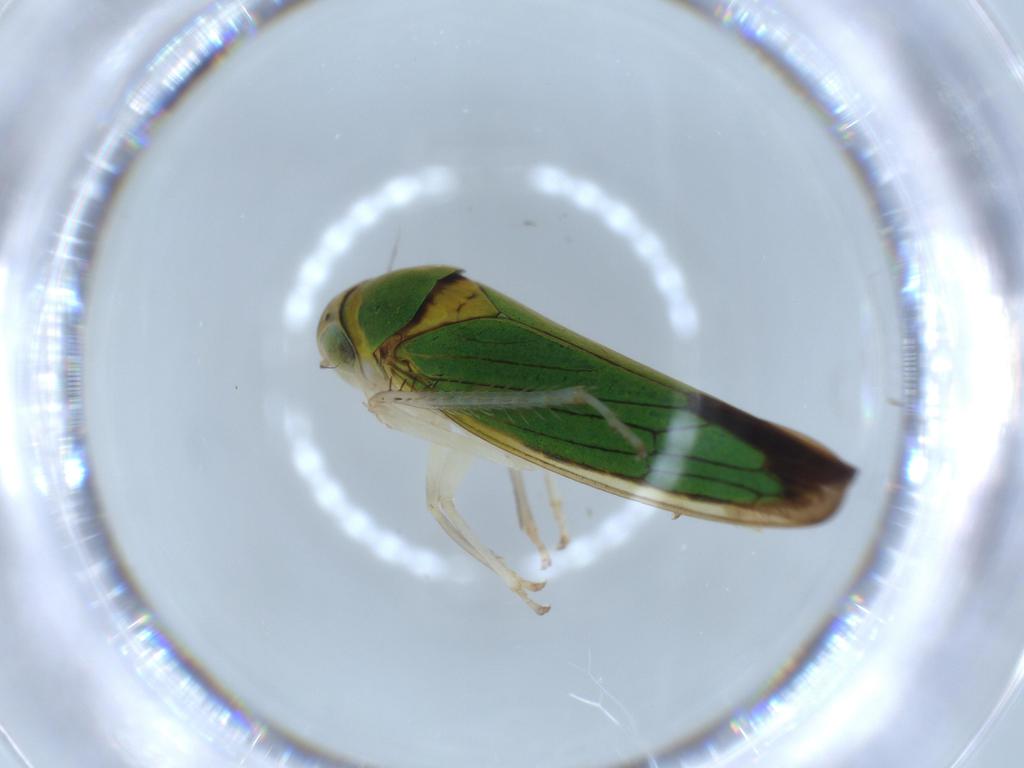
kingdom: Animalia
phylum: Arthropoda
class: Insecta
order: Hemiptera
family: Cicadellidae
